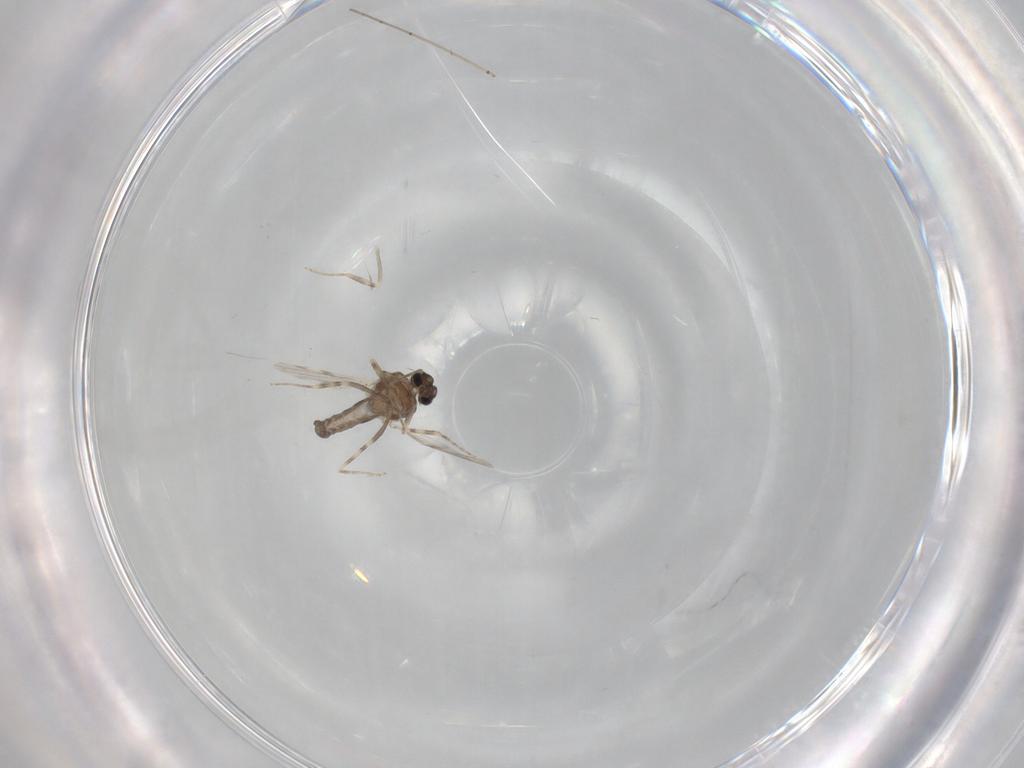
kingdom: Animalia
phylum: Arthropoda
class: Insecta
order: Diptera
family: Ceratopogonidae
